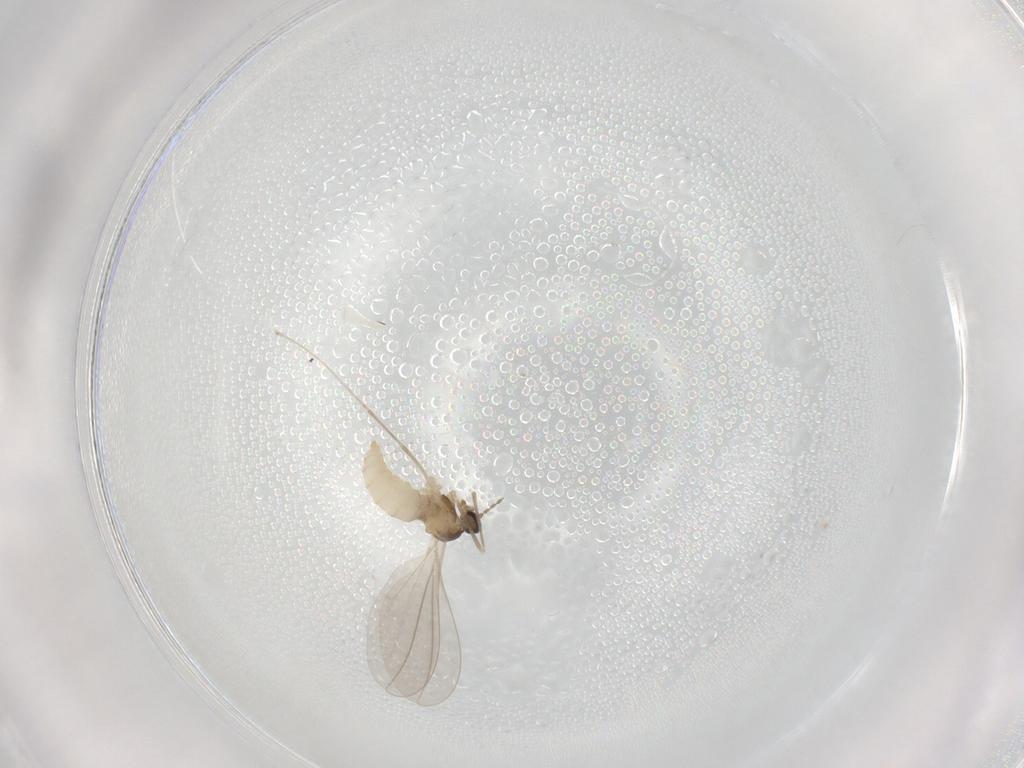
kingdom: Animalia
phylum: Arthropoda
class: Insecta
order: Diptera
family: Cecidomyiidae
